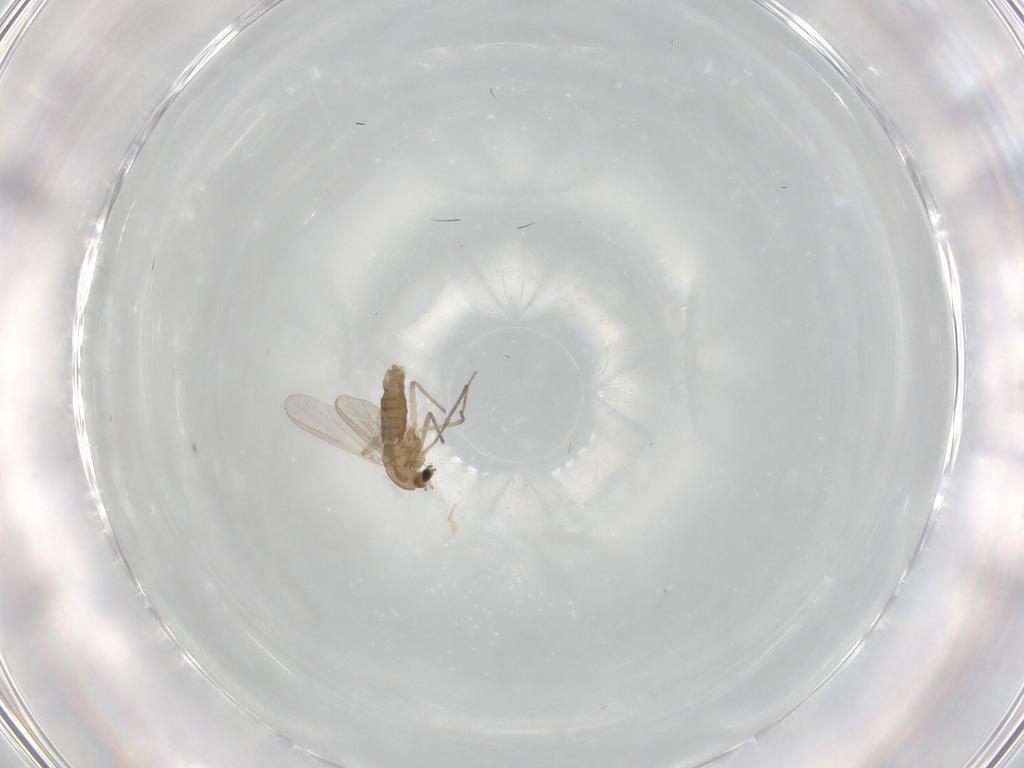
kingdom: Animalia
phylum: Arthropoda
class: Insecta
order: Diptera
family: Chironomidae
